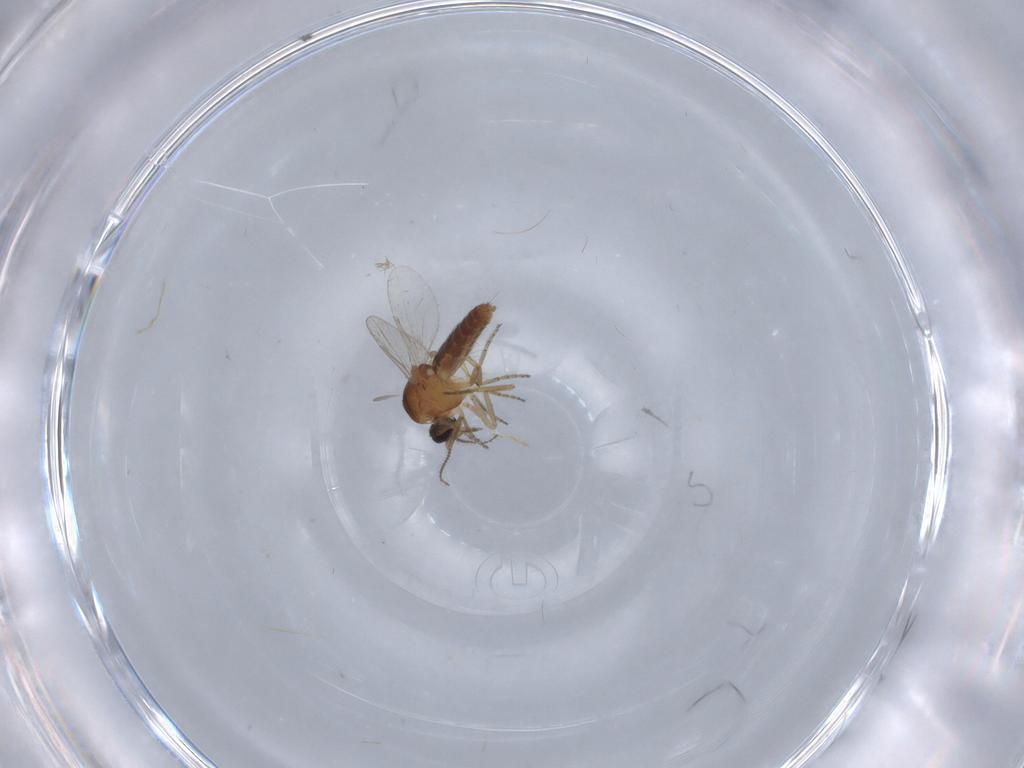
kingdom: Animalia
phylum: Arthropoda
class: Insecta
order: Diptera
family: Ceratopogonidae
